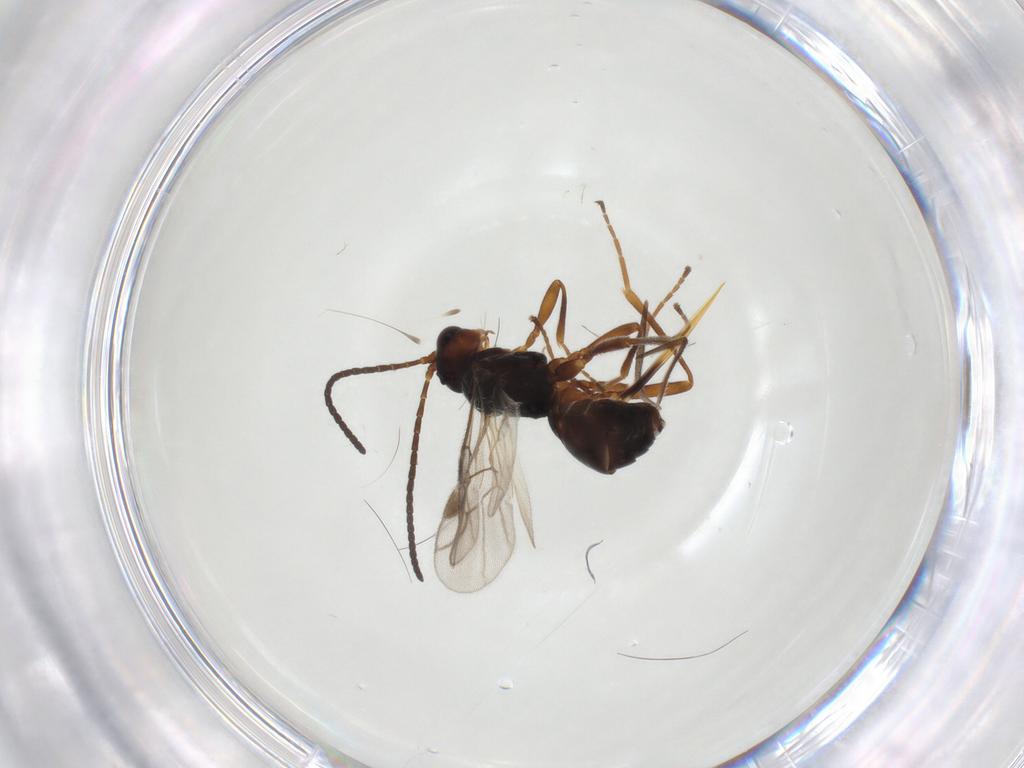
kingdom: Animalia
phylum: Arthropoda
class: Insecta
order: Hymenoptera
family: Braconidae
